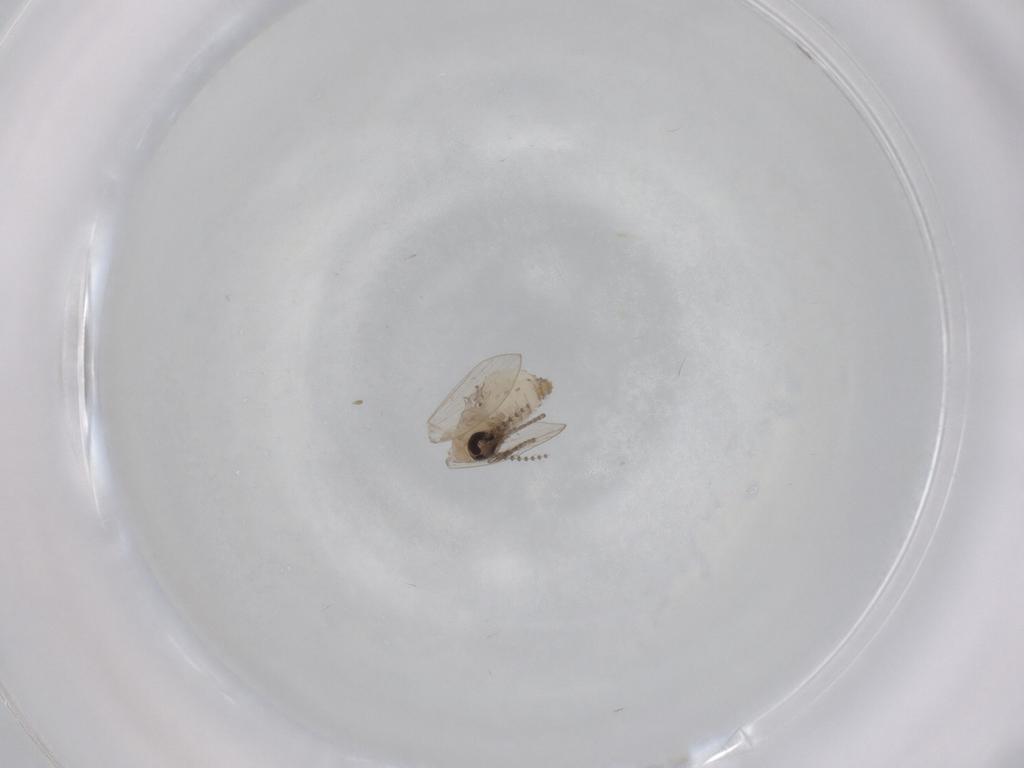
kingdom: Animalia
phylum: Arthropoda
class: Insecta
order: Diptera
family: Psychodidae
